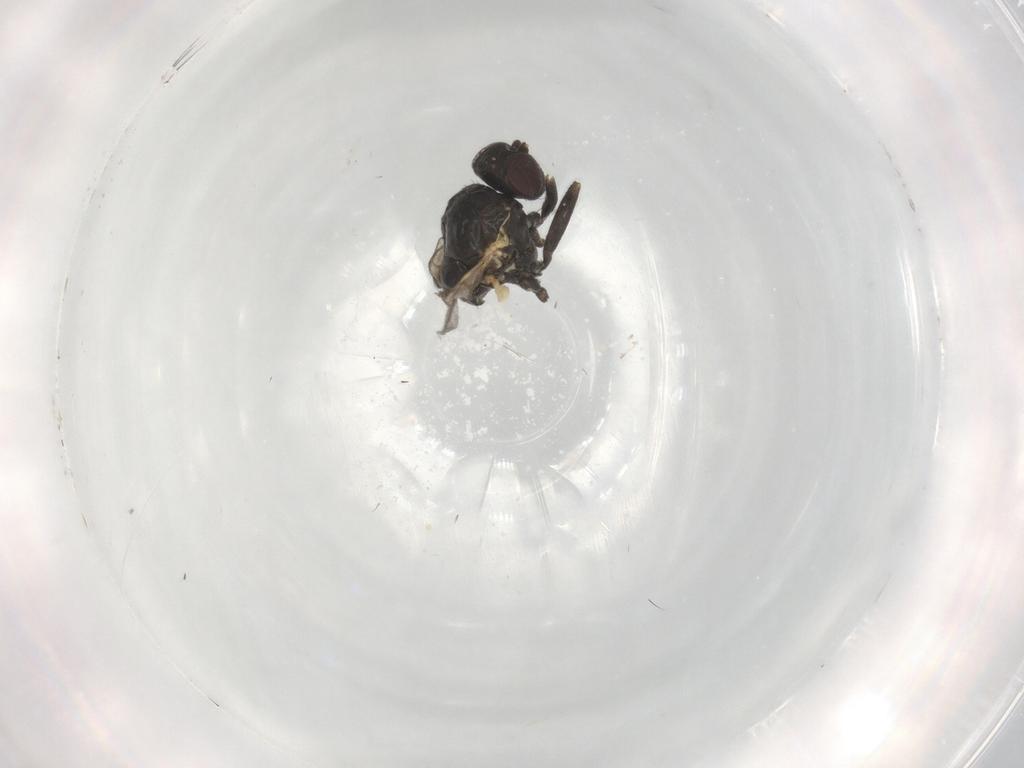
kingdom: Animalia
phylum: Arthropoda
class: Insecta
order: Diptera
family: Agromyzidae
